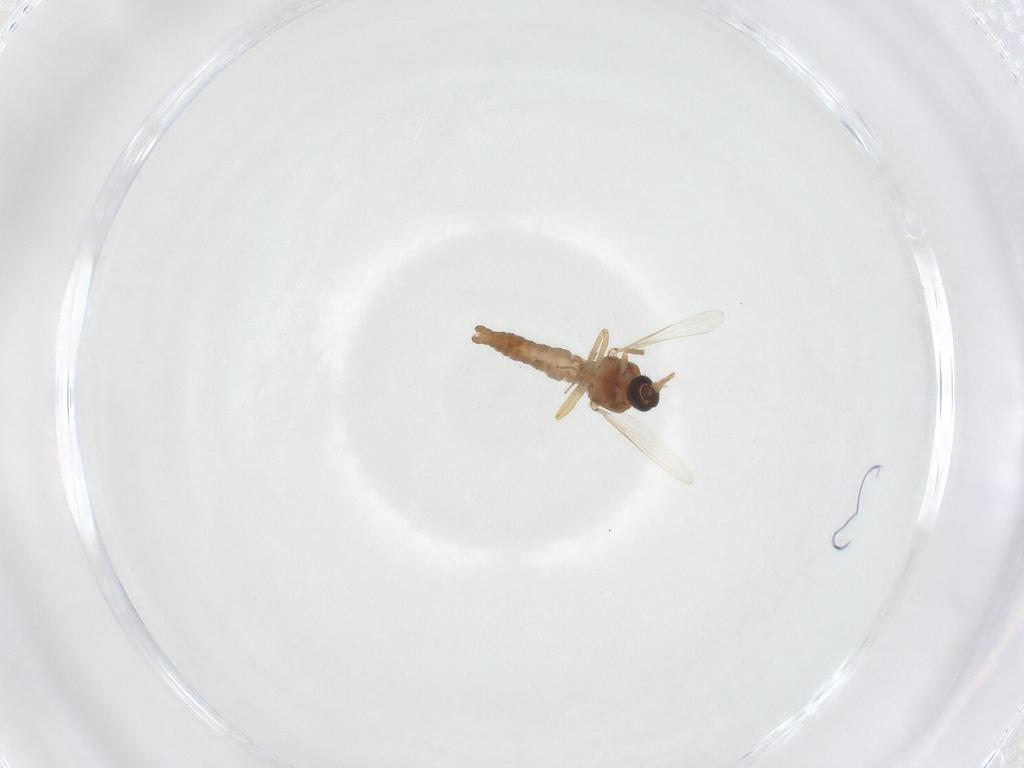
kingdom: Animalia
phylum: Arthropoda
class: Insecta
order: Diptera
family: Ceratopogonidae
